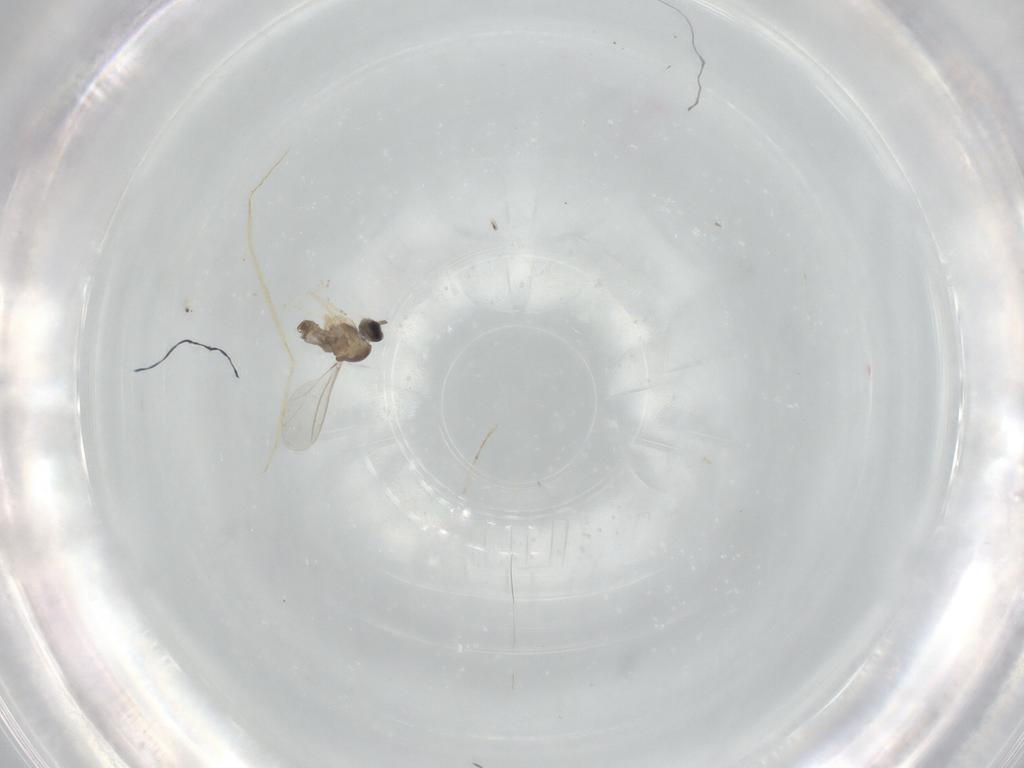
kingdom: Animalia
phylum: Arthropoda
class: Insecta
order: Diptera
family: Cecidomyiidae
